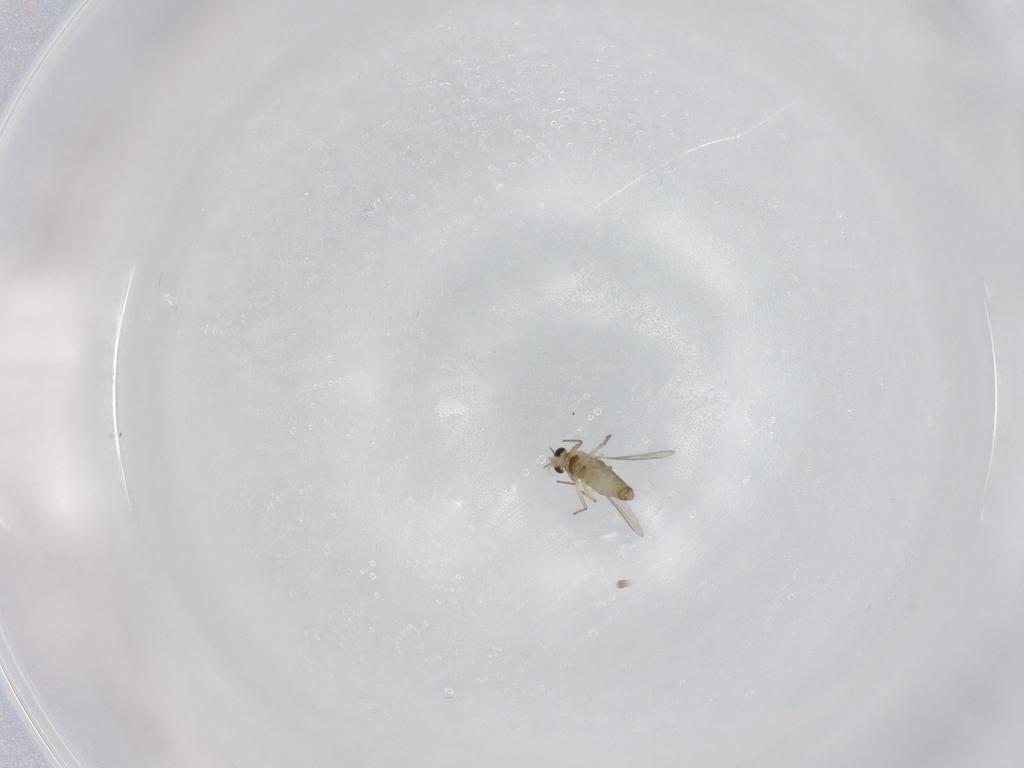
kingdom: Animalia
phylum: Arthropoda
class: Insecta
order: Diptera
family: Chironomidae
